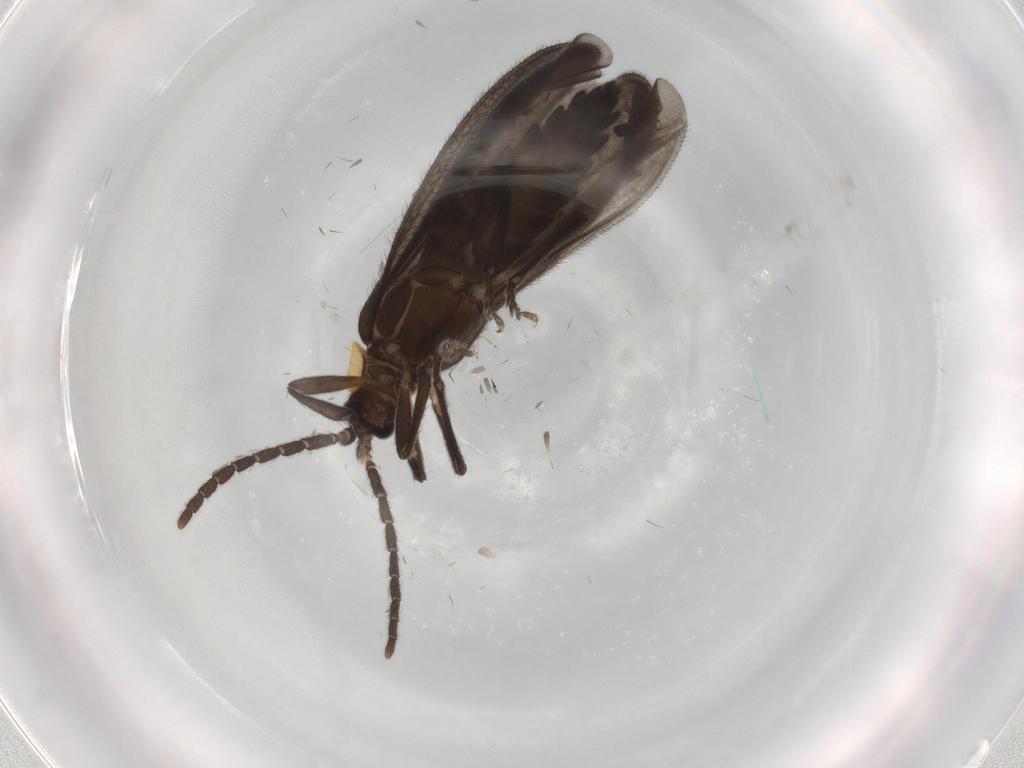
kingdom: Animalia
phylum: Arthropoda
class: Insecta
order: Coleoptera
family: Lycidae
